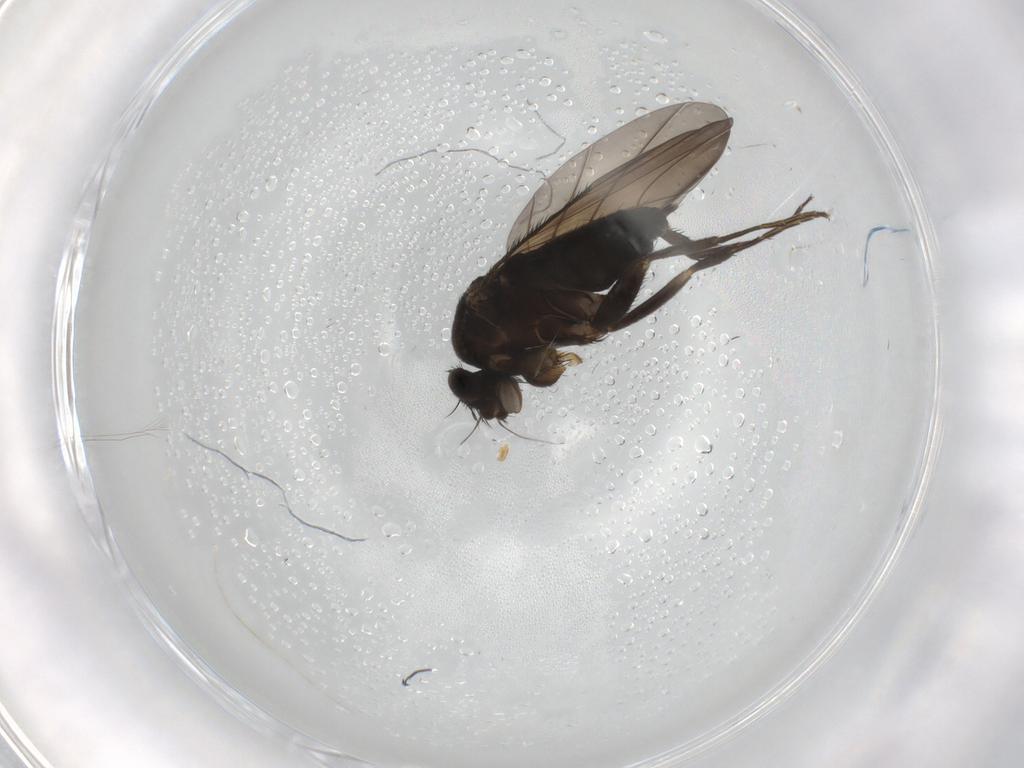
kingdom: Animalia
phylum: Arthropoda
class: Insecta
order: Diptera
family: Phoridae
